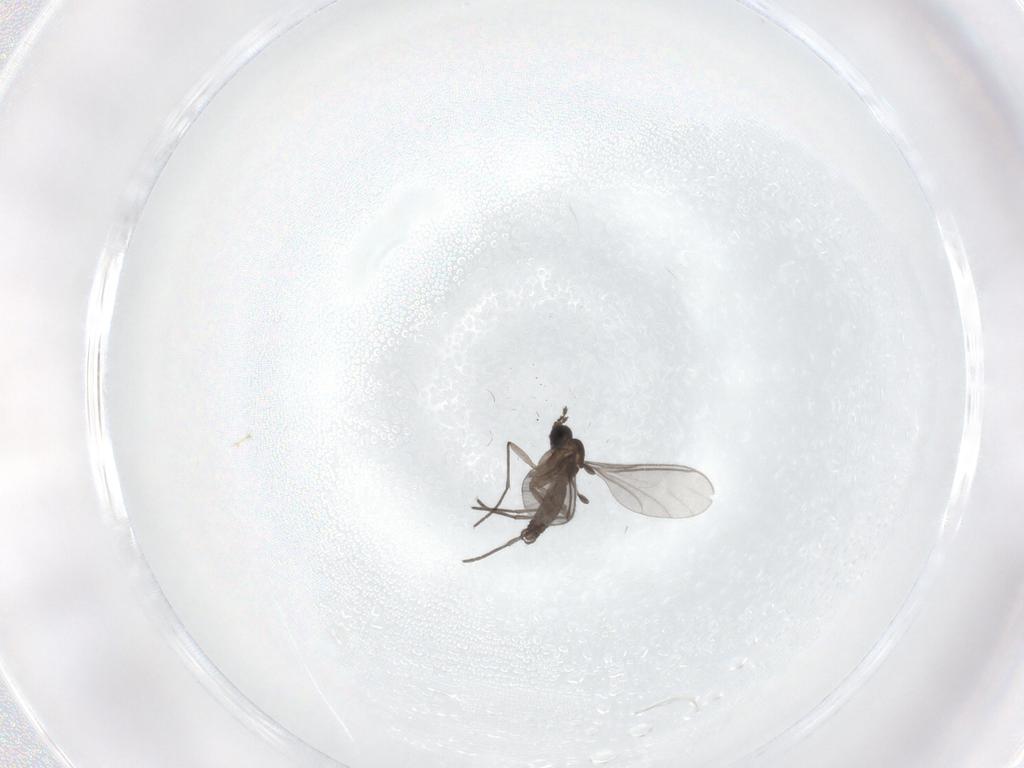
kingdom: Animalia
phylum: Arthropoda
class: Insecta
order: Diptera
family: Sciaridae
